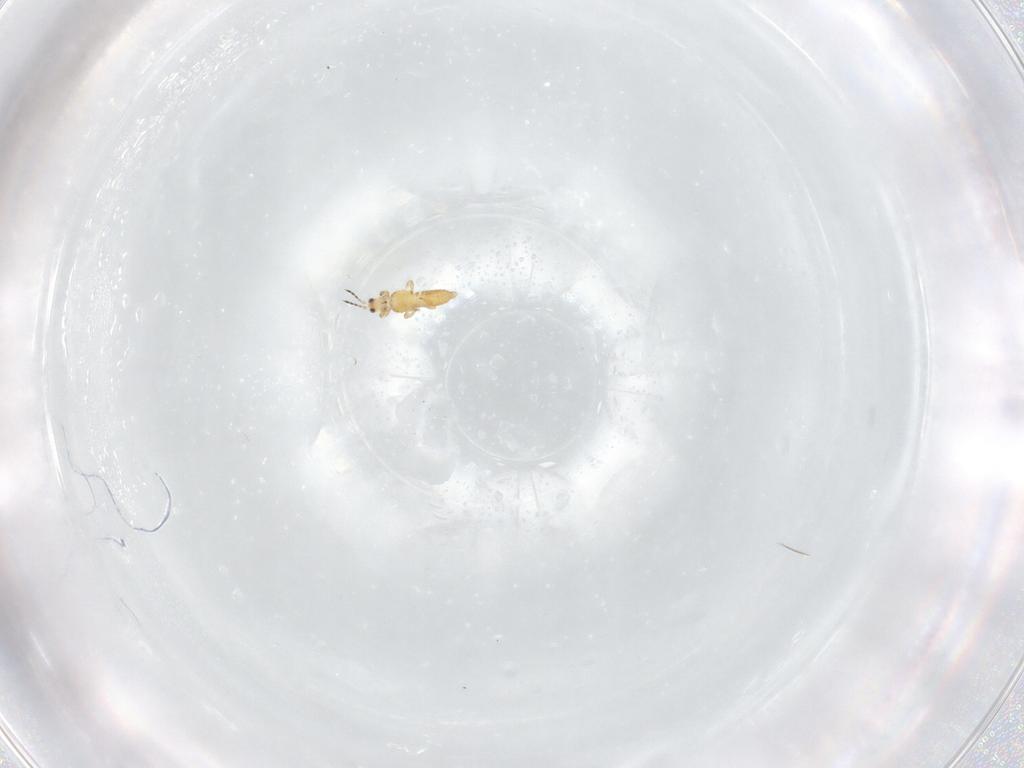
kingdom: Animalia
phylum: Arthropoda
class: Insecta
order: Thysanoptera
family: Thripidae
